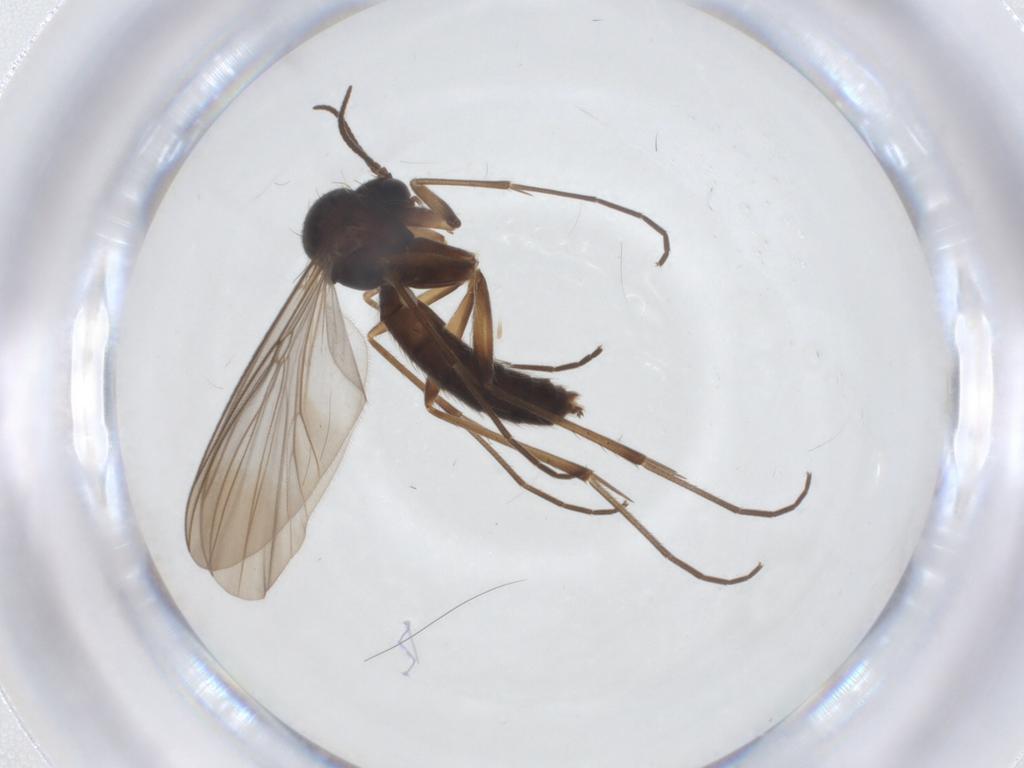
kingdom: Animalia
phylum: Arthropoda
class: Insecta
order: Diptera
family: Mycetophilidae
